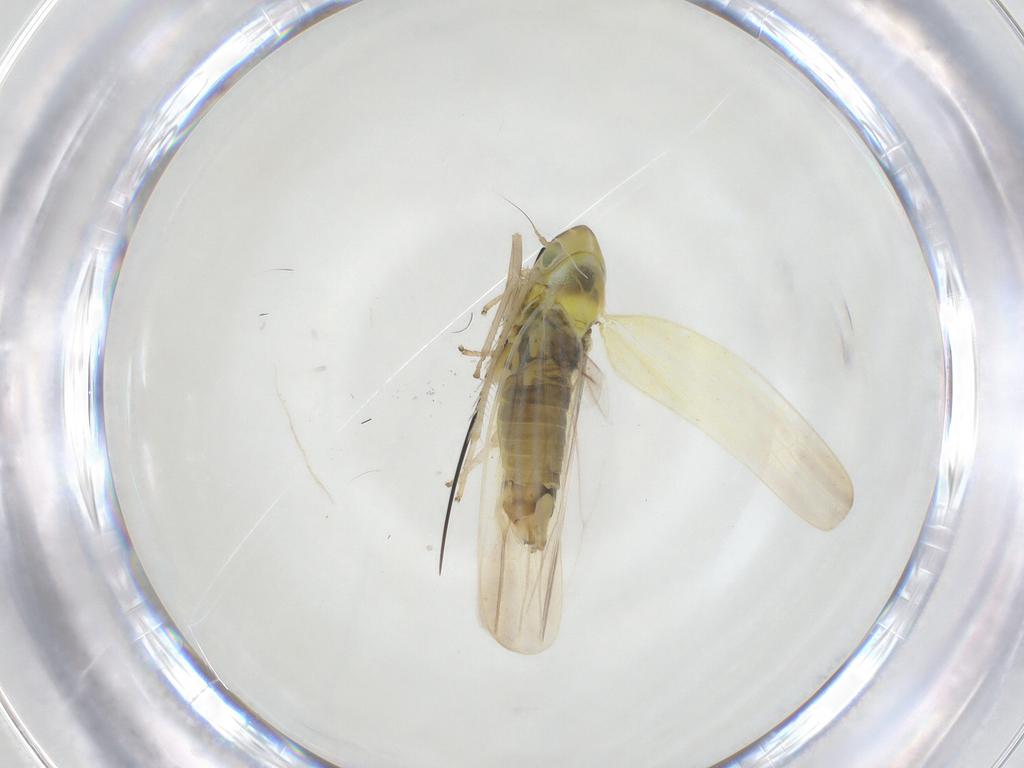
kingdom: Animalia
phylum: Arthropoda
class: Insecta
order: Hemiptera
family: Cicadellidae
